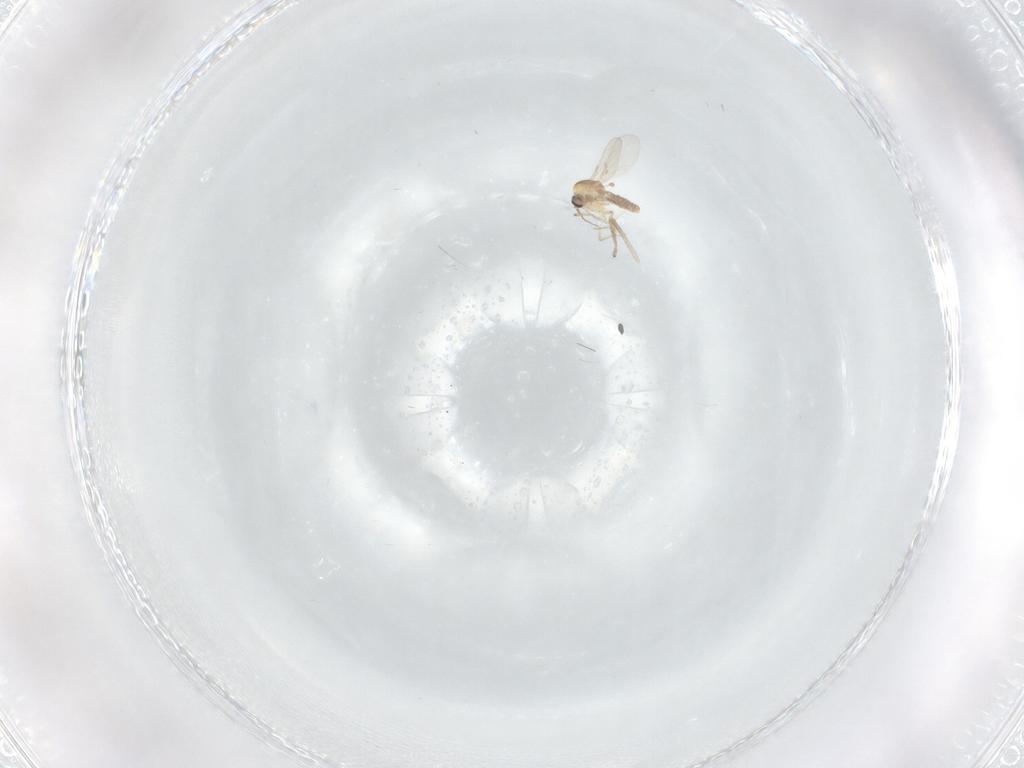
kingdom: Animalia
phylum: Arthropoda
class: Insecta
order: Diptera
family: Ceratopogonidae
